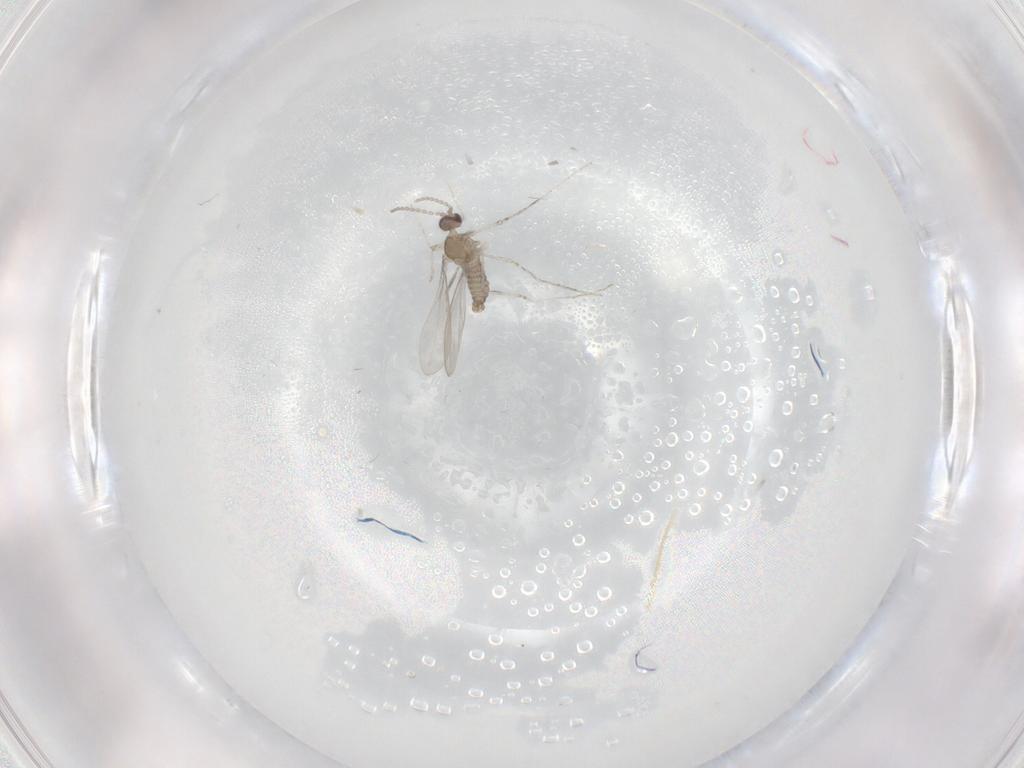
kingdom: Animalia
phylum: Arthropoda
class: Insecta
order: Diptera
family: Cecidomyiidae
